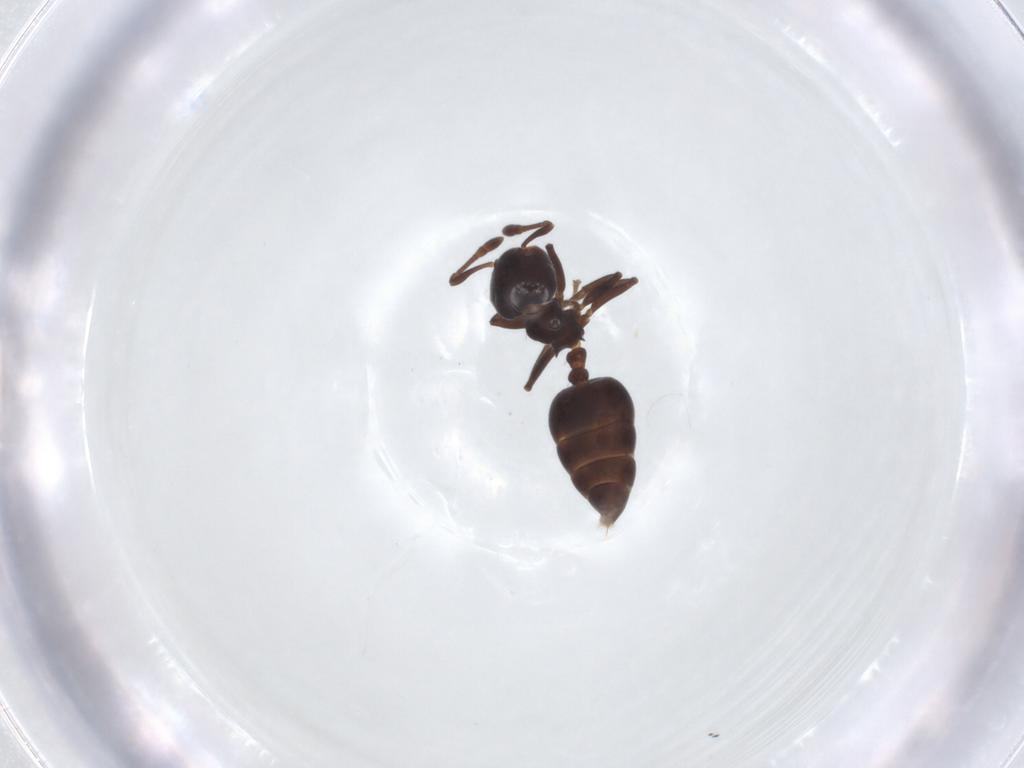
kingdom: Animalia
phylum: Arthropoda
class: Insecta
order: Hymenoptera
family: Formicidae
